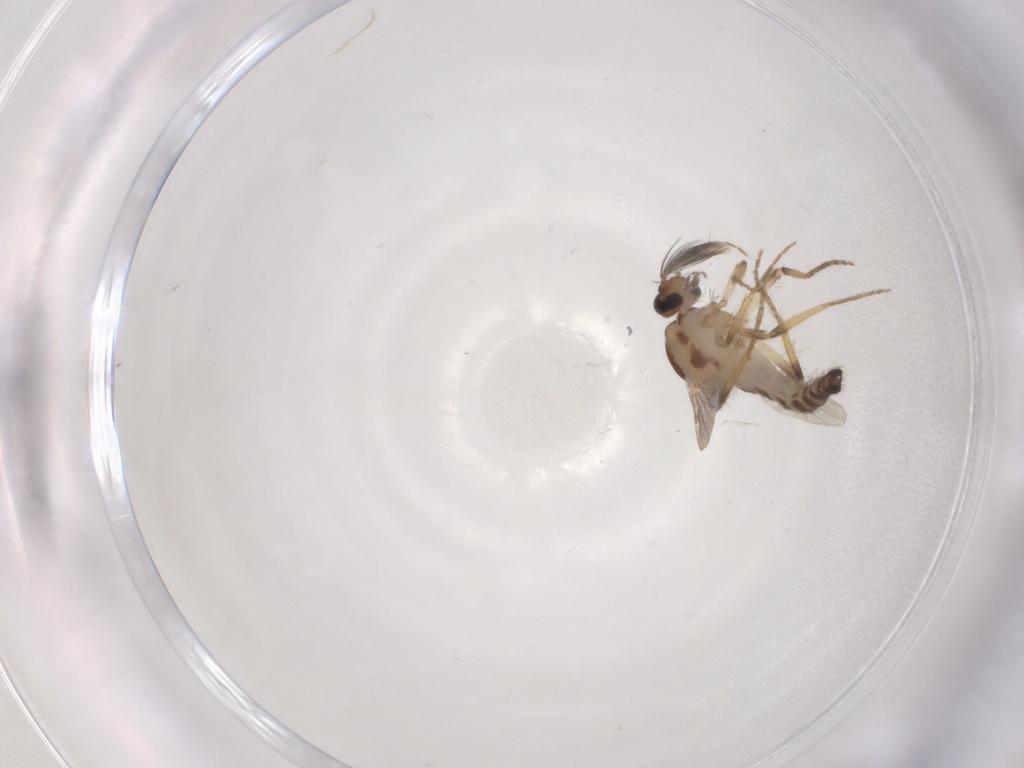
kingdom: Animalia
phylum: Arthropoda
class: Insecta
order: Diptera
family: Ceratopogonidae
